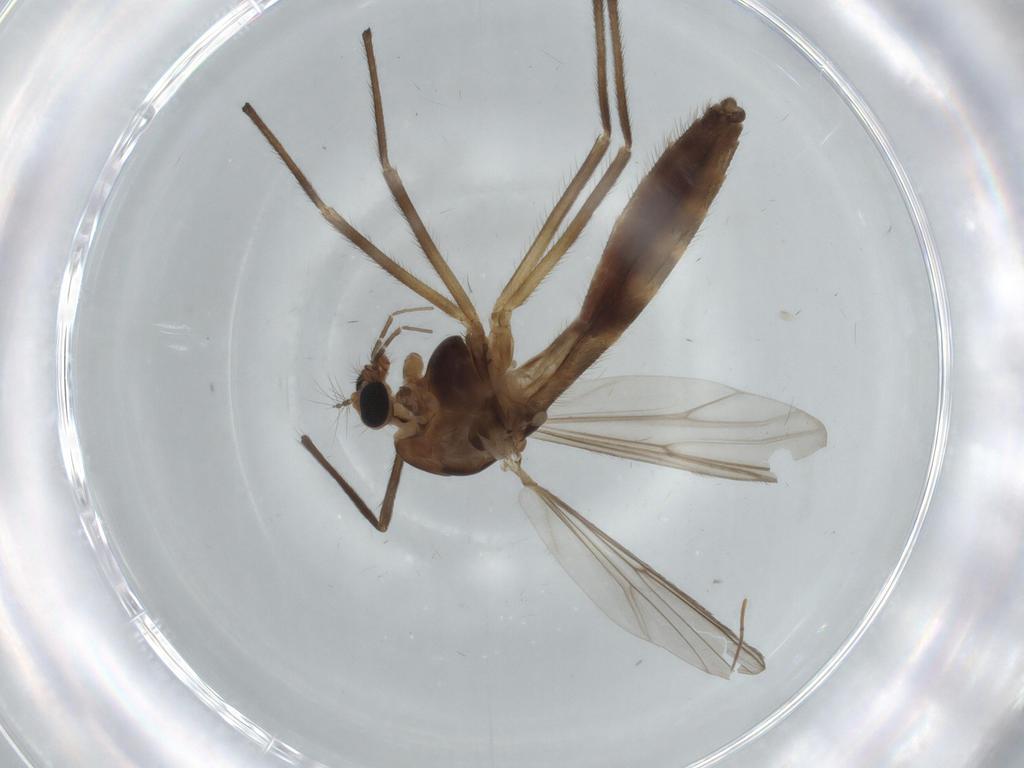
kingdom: Animalia
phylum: Arthropoda
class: Insecta
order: Diptera
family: Chironomidae
